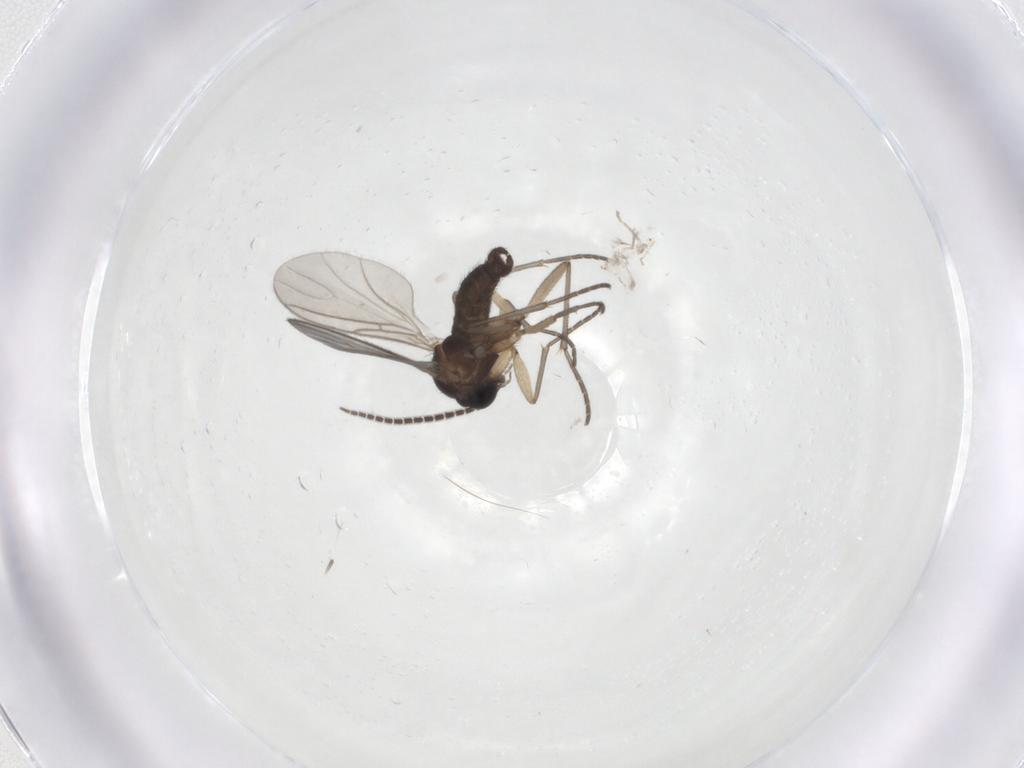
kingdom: Animalia
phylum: Arthropoda
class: Insecta
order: Diptera
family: Sciaridae
